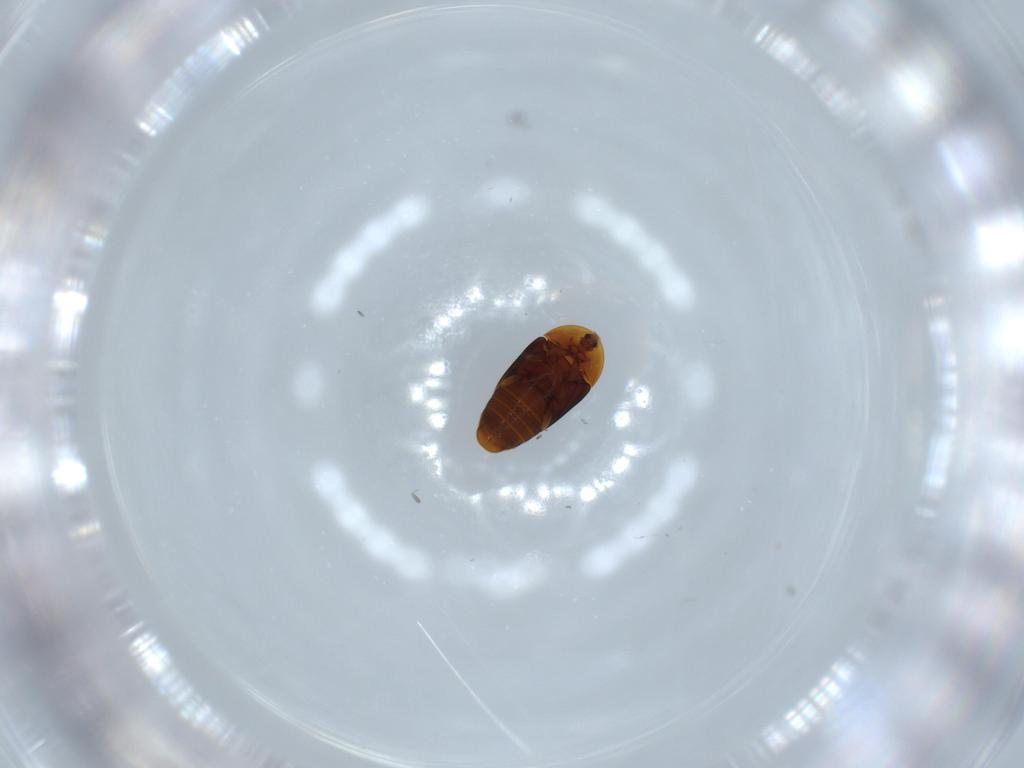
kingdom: Animalia
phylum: Arthropoda
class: Insecta
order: Coleoptera
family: Corylophidae
